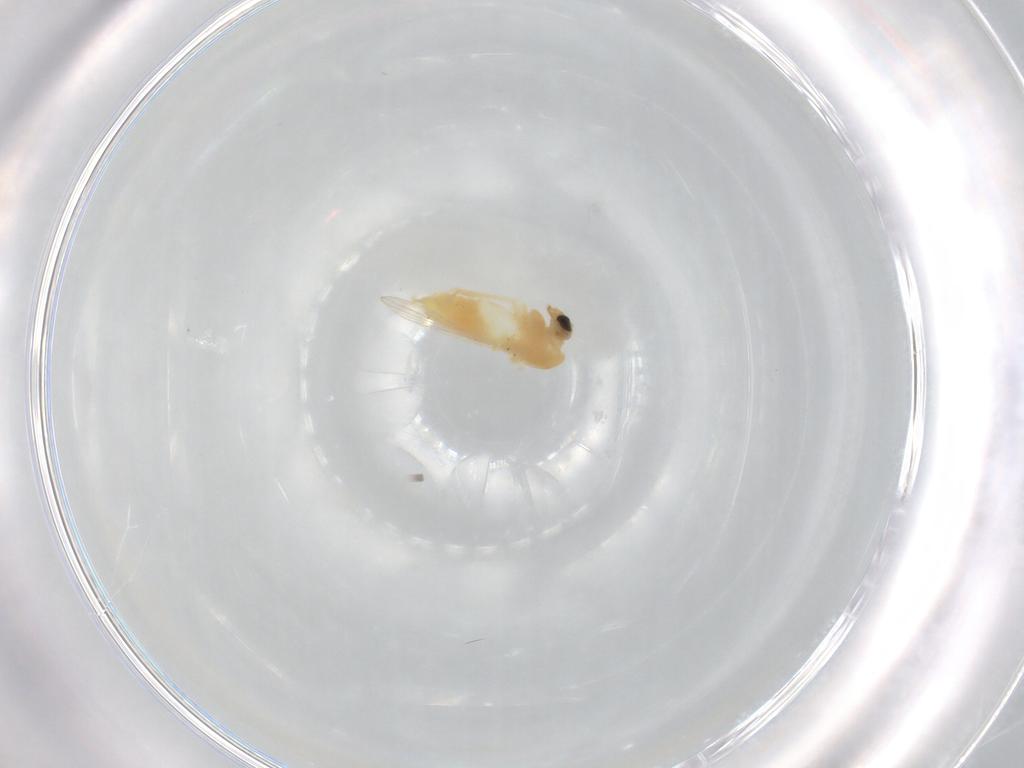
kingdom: Animalia
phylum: Arthropoda
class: Insecta
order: Diptera
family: Chironomidae
